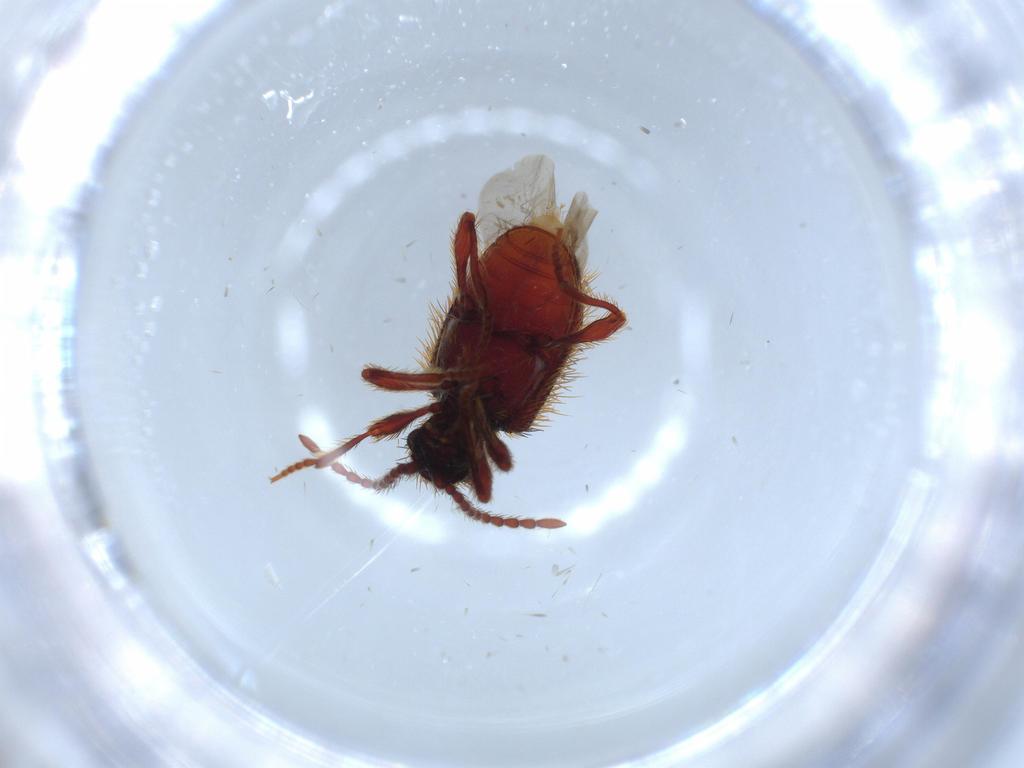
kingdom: Animalia
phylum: Arthropoda
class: Insecta
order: Coleoptera
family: Aderidae
